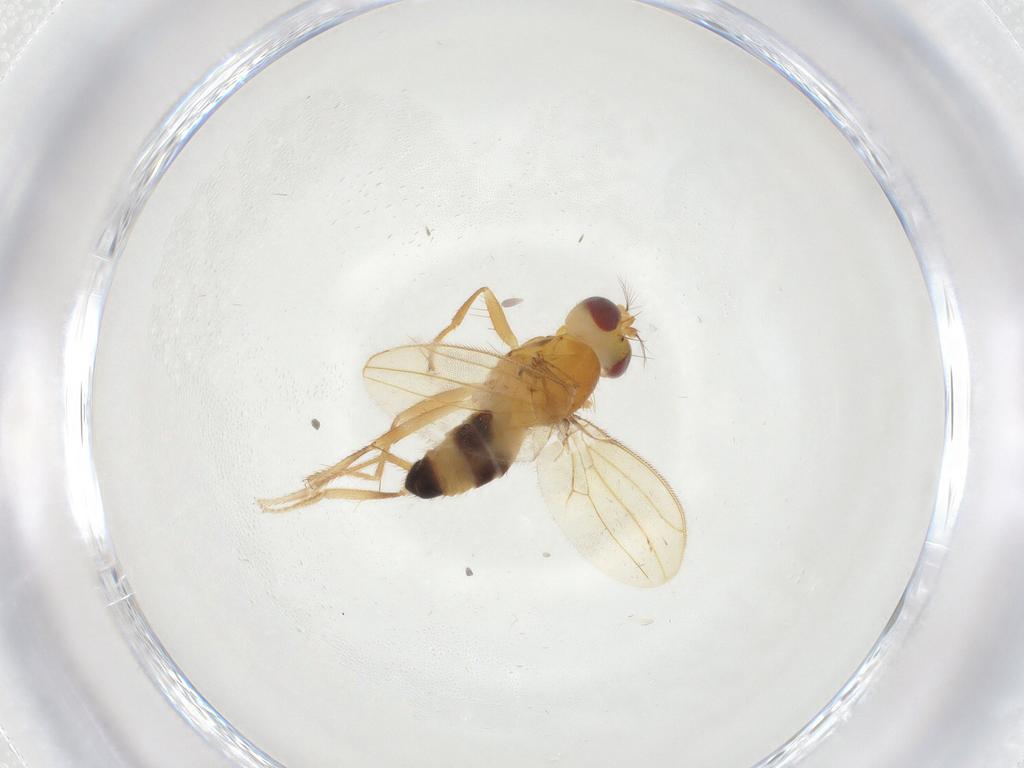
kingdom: Animalia
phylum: Arthropoda
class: Insecta
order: Diptera
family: Periscelididae
